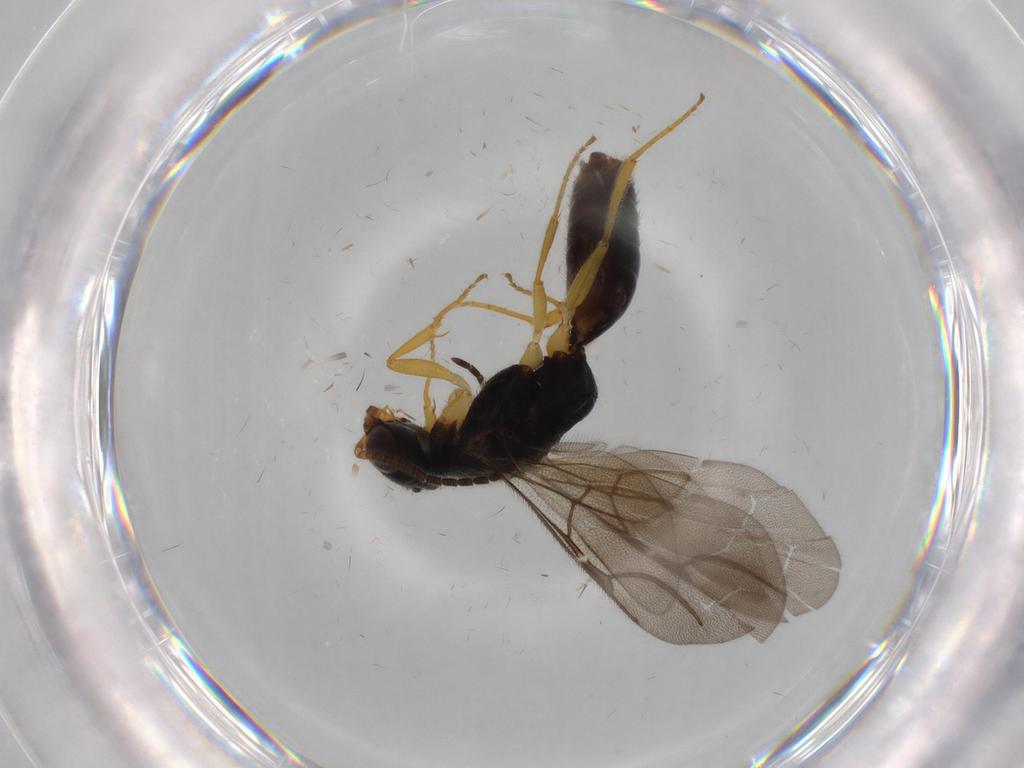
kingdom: Animalia
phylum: Arthropoda
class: Insecta
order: Hymenoptera
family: Bethylidae
